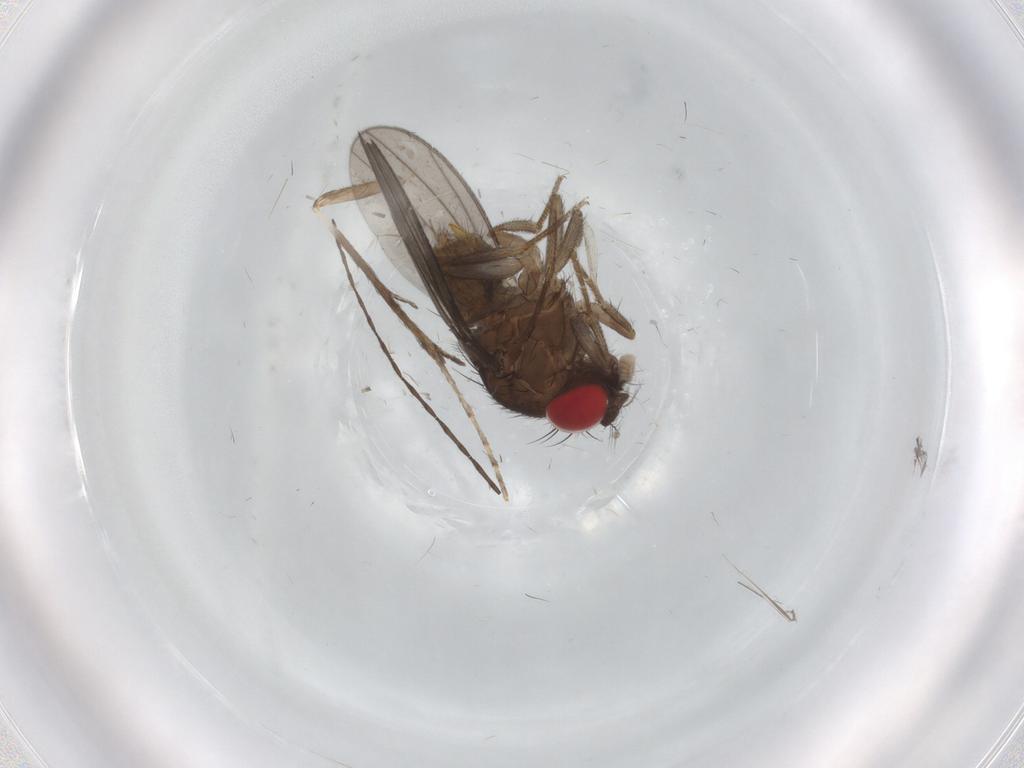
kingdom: Animalia
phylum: Arthropoda
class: Insecta
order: Diptera
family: Drosophilidae
